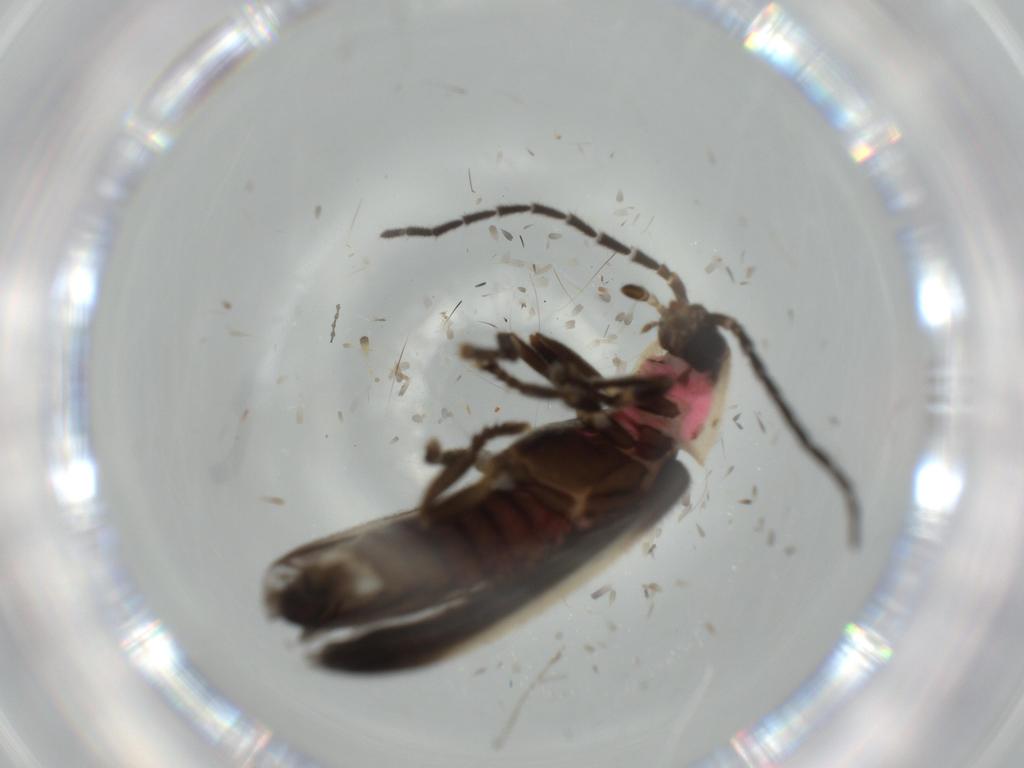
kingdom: Animalia
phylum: Arthropoda
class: Insecta
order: Coleoptera
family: Lampyridae
